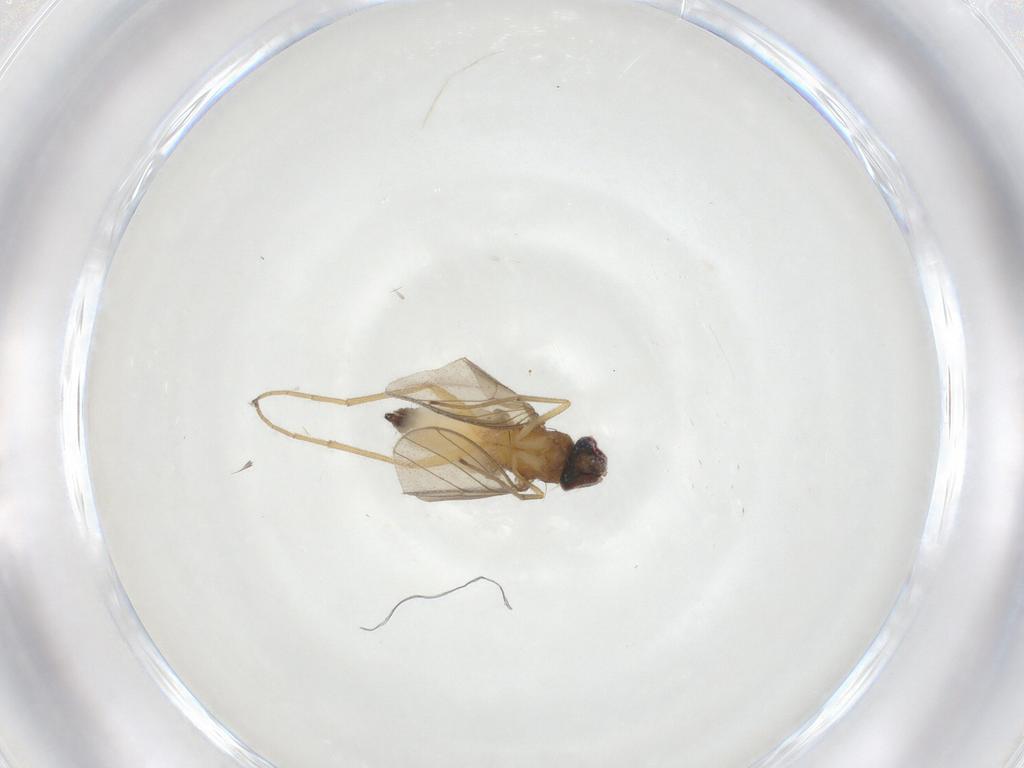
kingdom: Animalia
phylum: Arthropoda
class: Insecta
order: Diptera
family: Dolichopodidae
